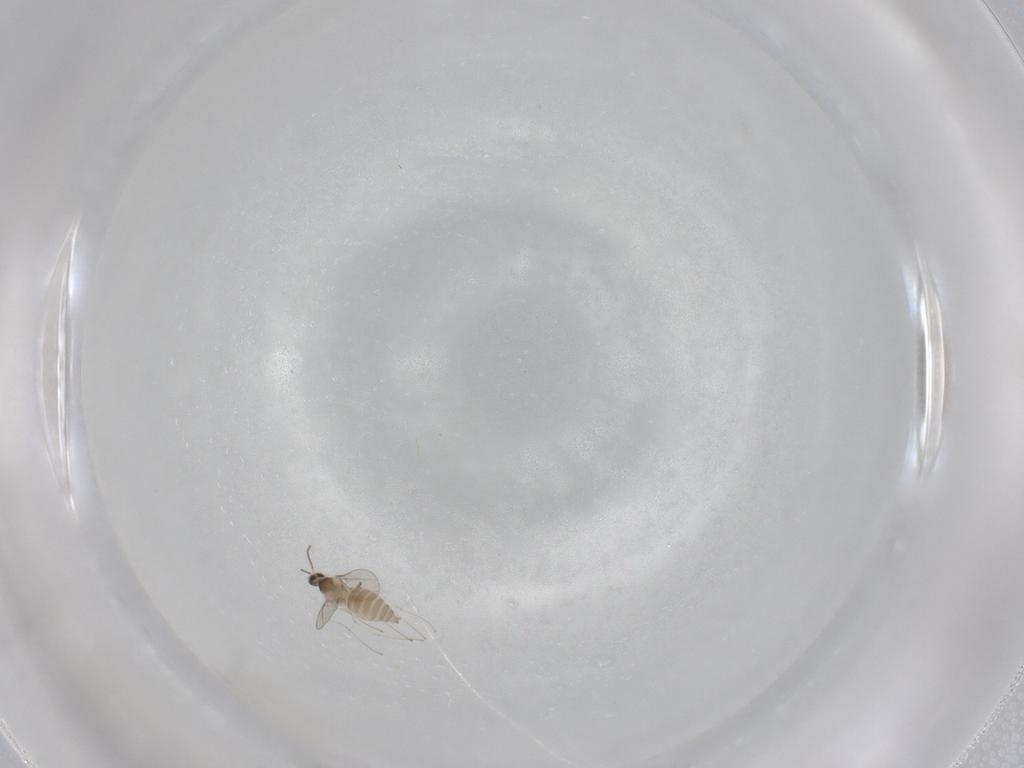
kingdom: Animalia
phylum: Arthropoda
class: Insecta
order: Diptera
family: Cecidomyiidae
